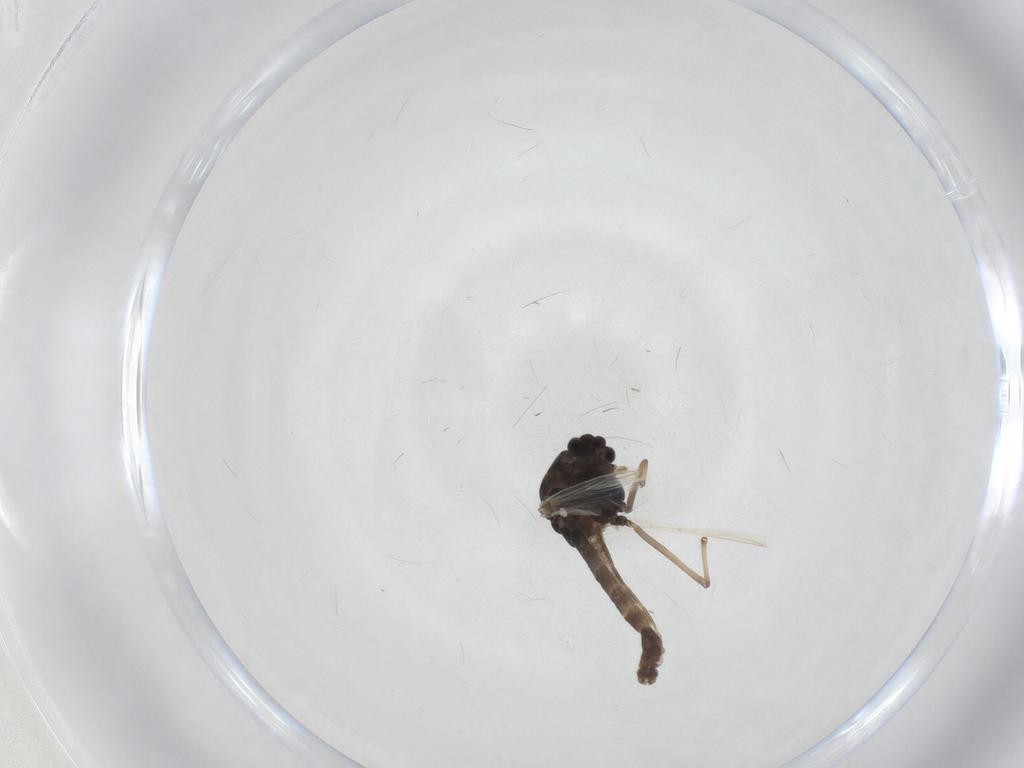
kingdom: Animalia
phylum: Arthropoda
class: Insecta
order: Diptera
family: Chironomidae
